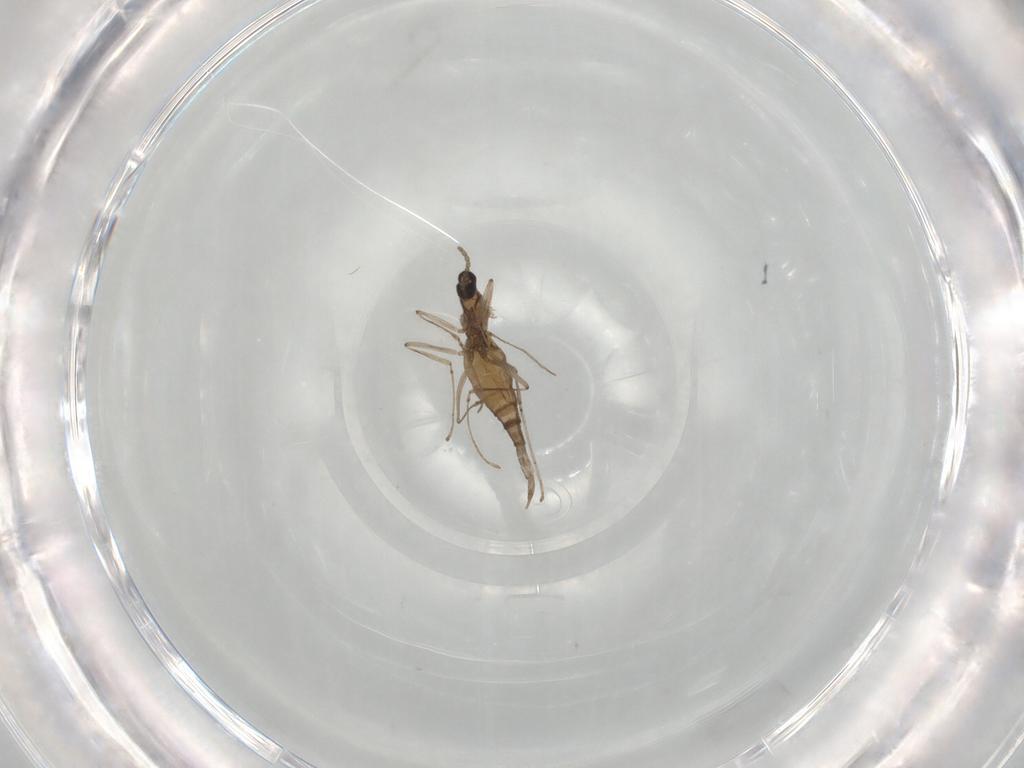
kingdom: Animalia
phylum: Arthropoda
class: Insecta
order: Diptera
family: Cecidomyiidae
